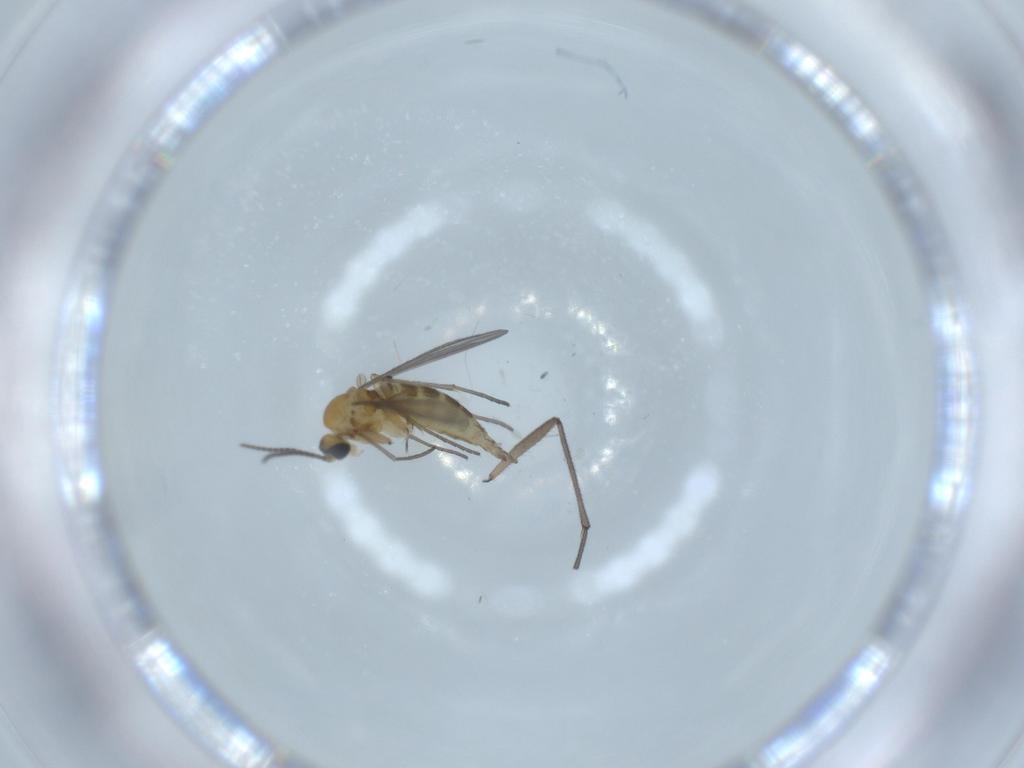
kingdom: Animalia
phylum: Arthropoda
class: Insecta
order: Diptera
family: Sciaridae
